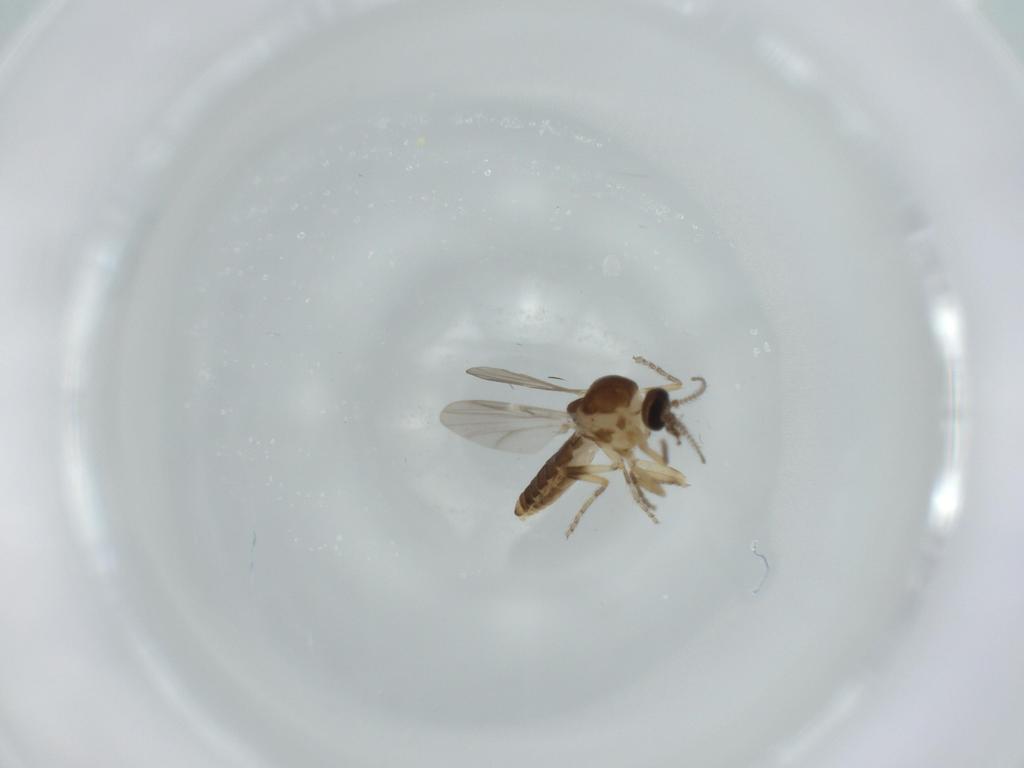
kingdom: Animalia
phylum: Arthropoda
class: Insecta
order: Diptera
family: Ceratopogonidae
